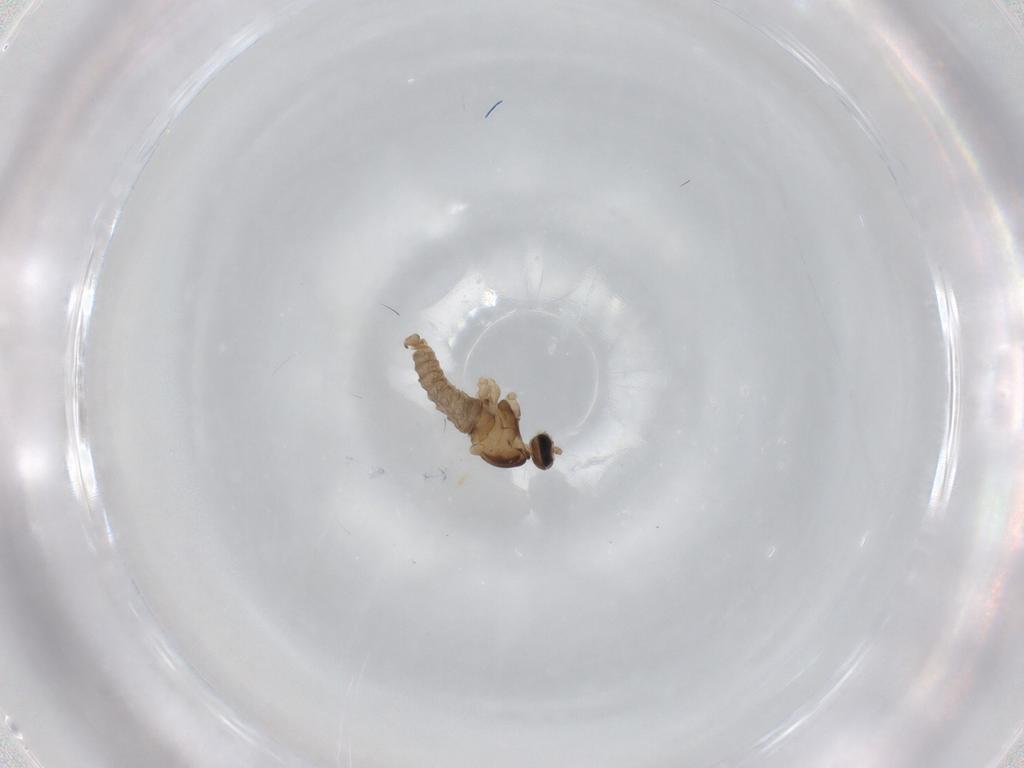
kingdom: Animalia
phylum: Arthropoda
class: Insecta
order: Diptera
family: Cecidomyiidae
